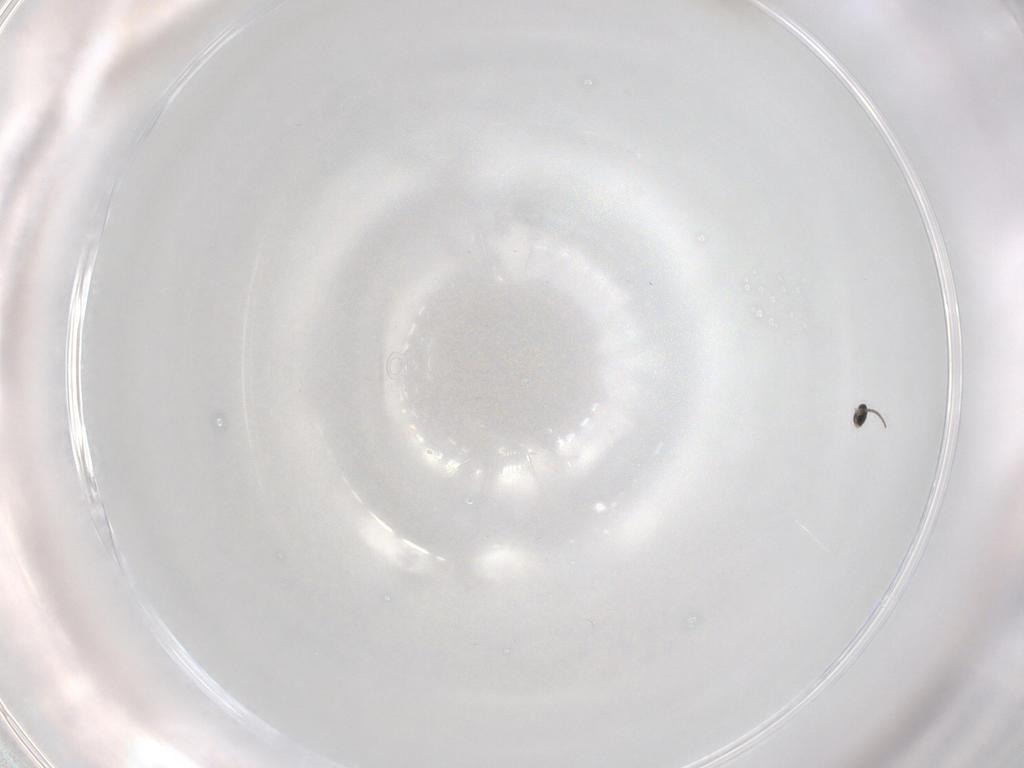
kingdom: Animalia
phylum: Arthropoda
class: Insecta
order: Diptera
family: Cecidomyiidae
